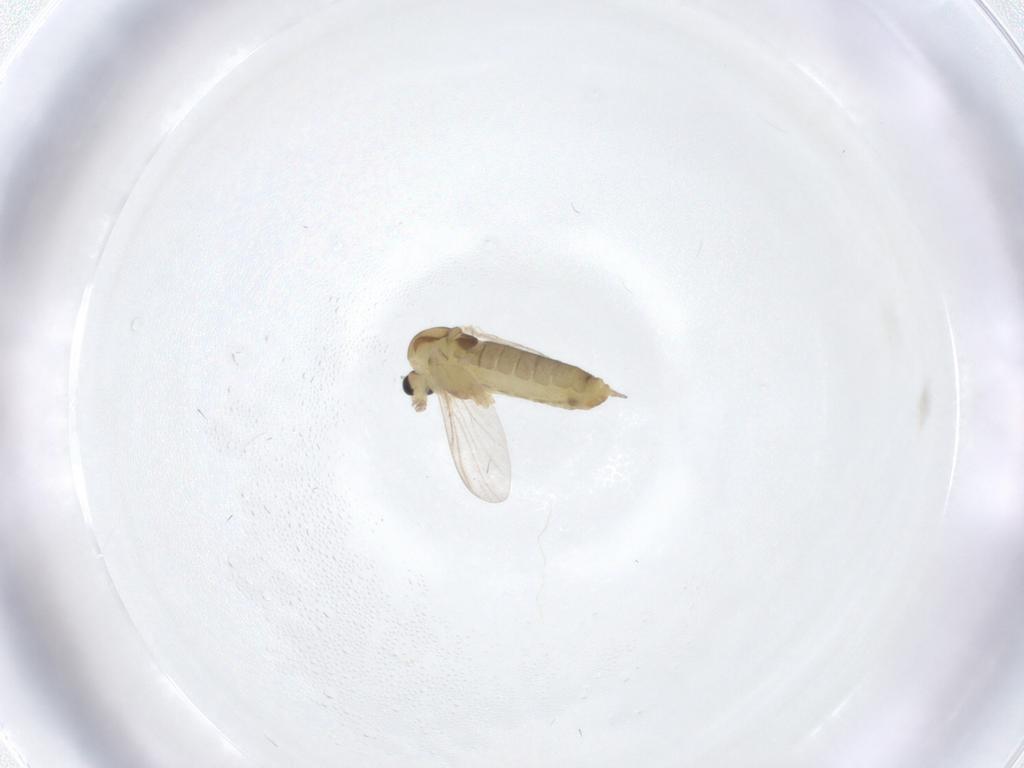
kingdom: Animalia
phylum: Arthropoda
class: Insecta
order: Diptera
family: Chironomidae
